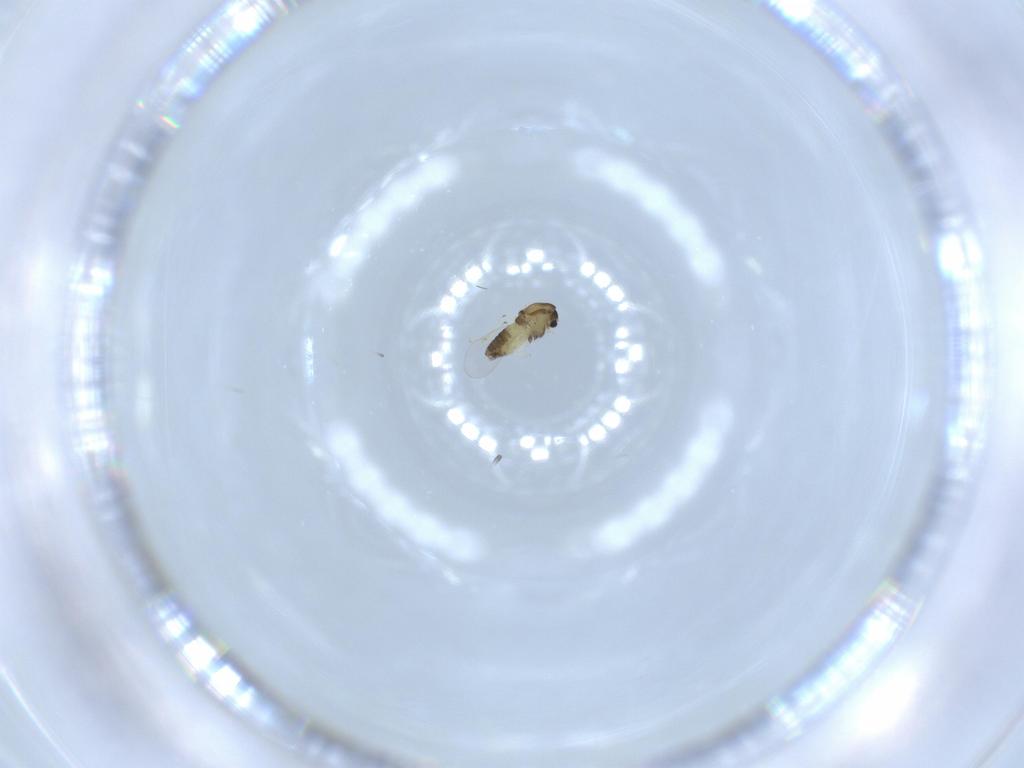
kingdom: Animalia
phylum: Arthropoda
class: Insecta
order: Diptera
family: Chironomidae
